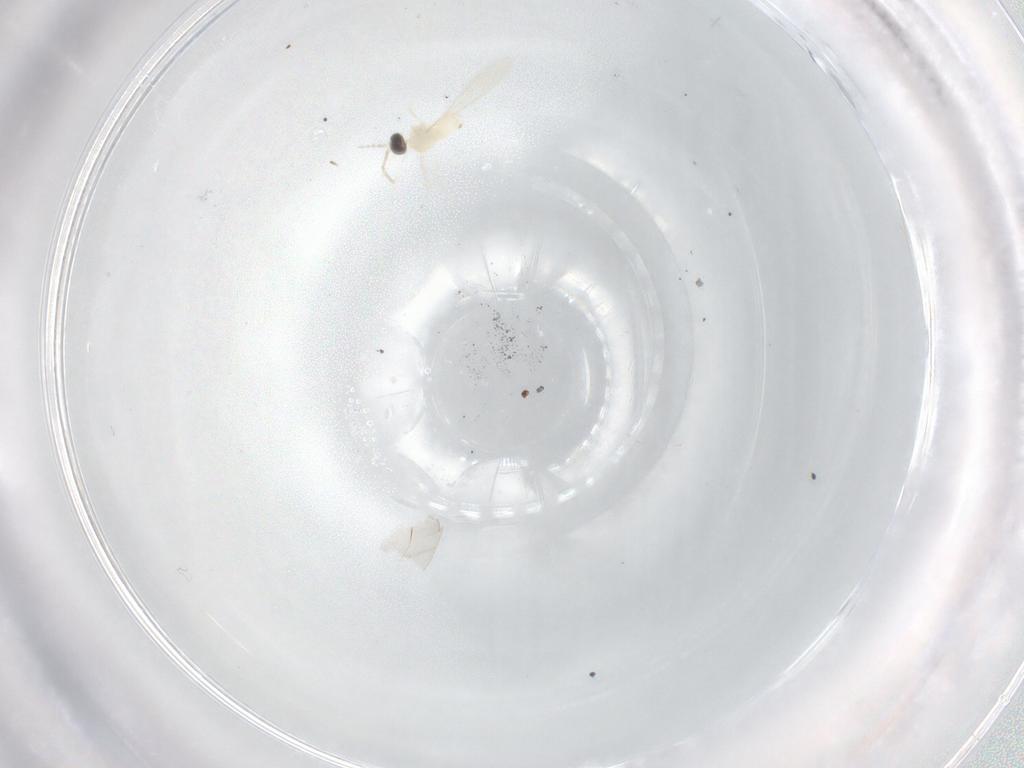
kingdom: Animalia
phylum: Arthropoda
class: Insecta
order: Diptera
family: Cecidomyiidae
